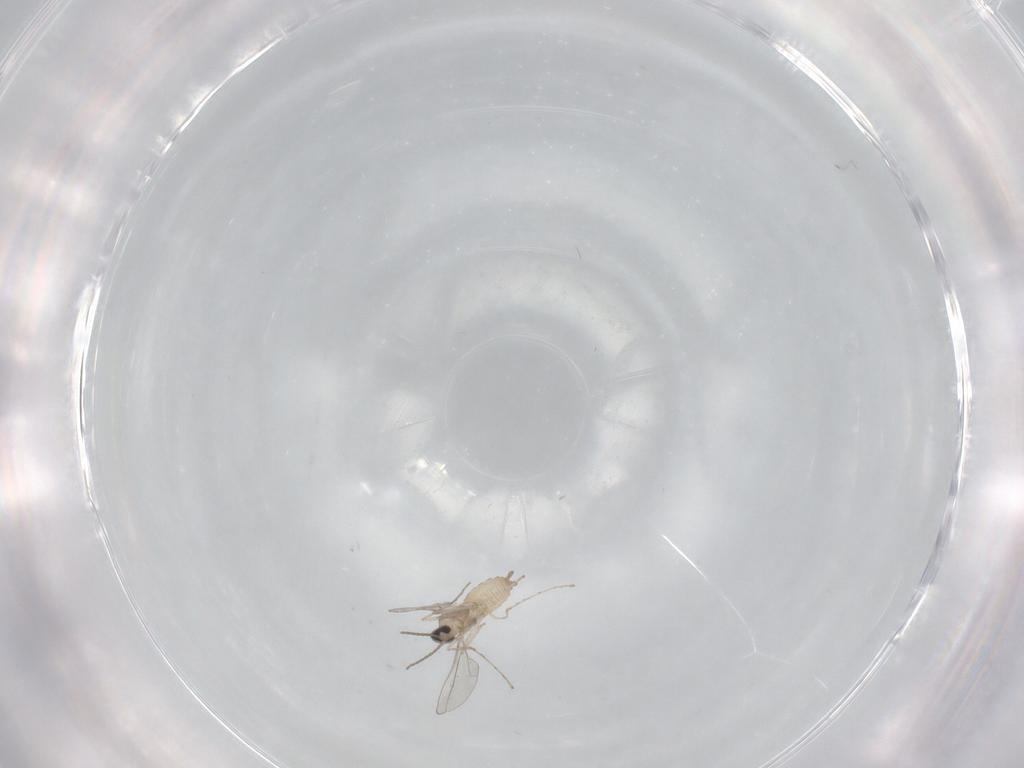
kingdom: Animalia
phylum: Arthropoda
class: Insecta
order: Diptera
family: Cecidomyiidae
